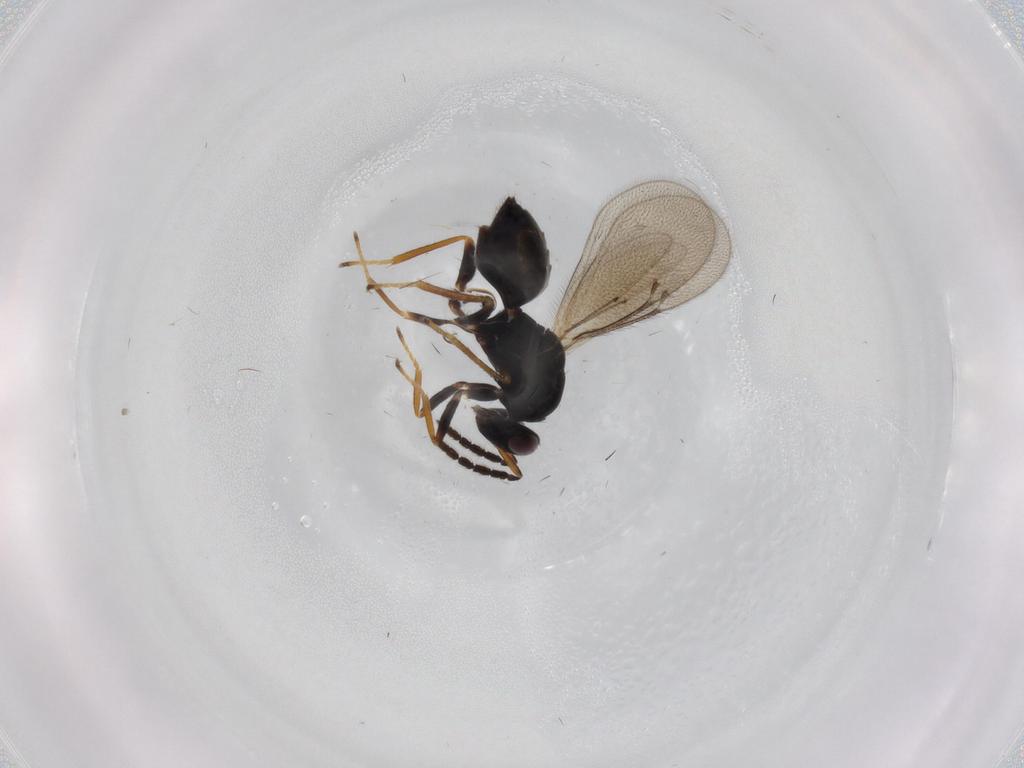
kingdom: Animalia
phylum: Arthropoda
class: Insecta
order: Hymenoptera
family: Eulophidae
